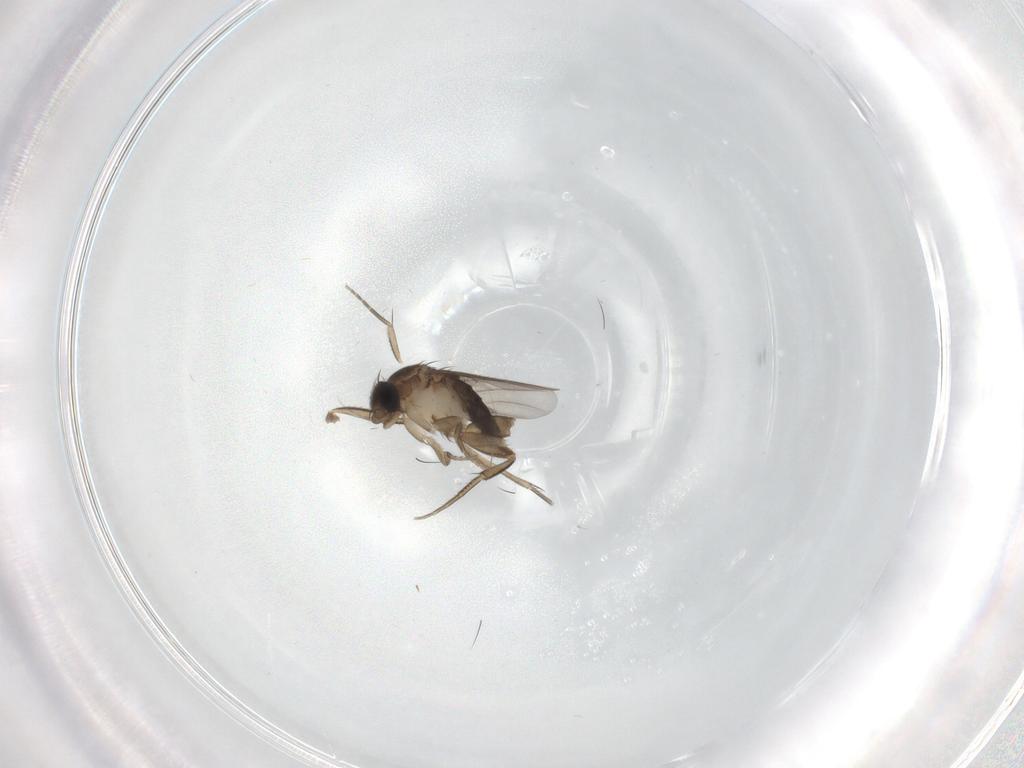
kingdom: Animalia
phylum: Arthropoda
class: Insecta
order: Diptera
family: Phoridae
